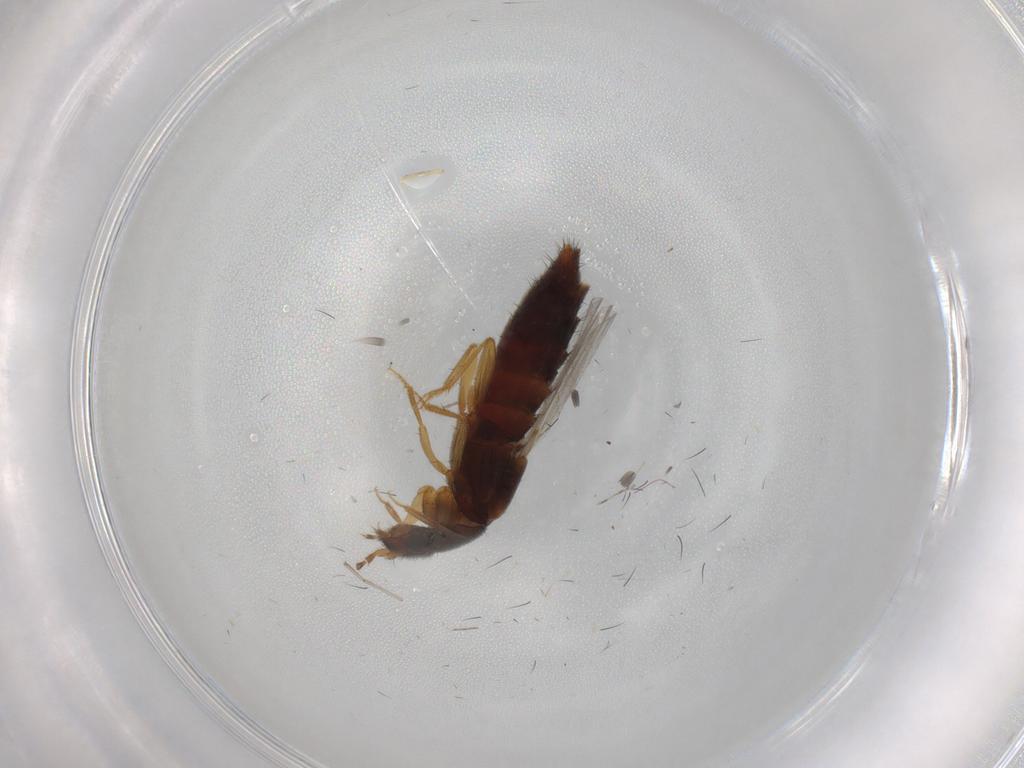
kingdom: Animalia
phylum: Arthropoda
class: Insecta
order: Coleoptera
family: Staphylinidae
